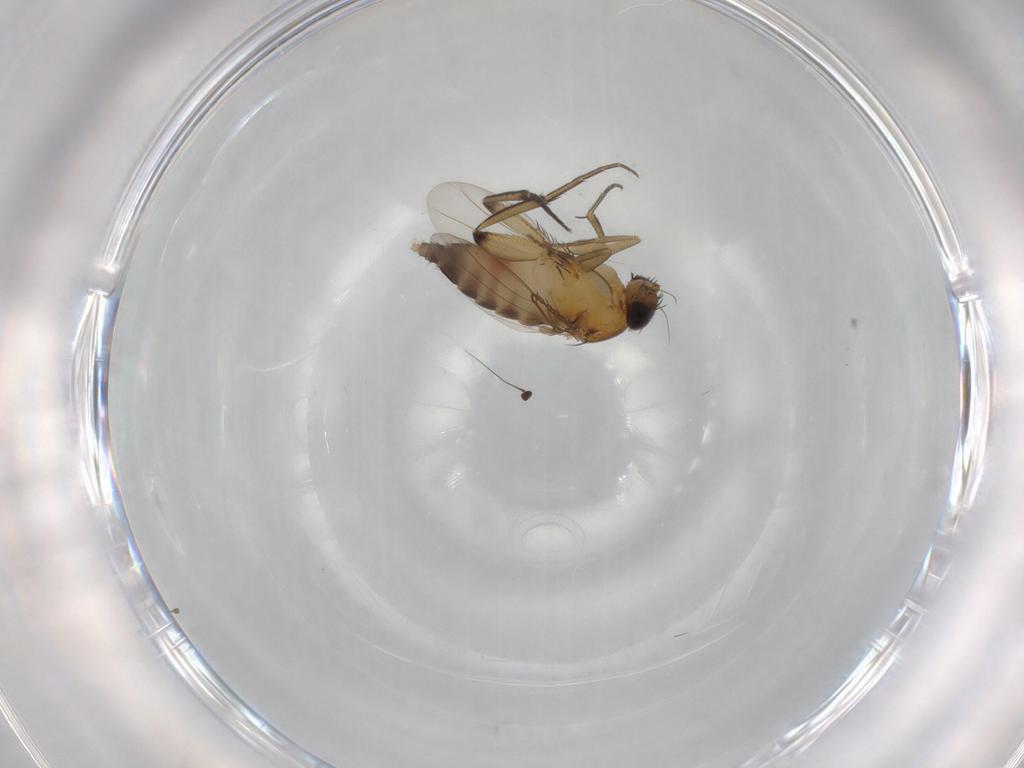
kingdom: Animalia
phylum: Arthropoda
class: Insecta
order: Diptera
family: Phoridae
